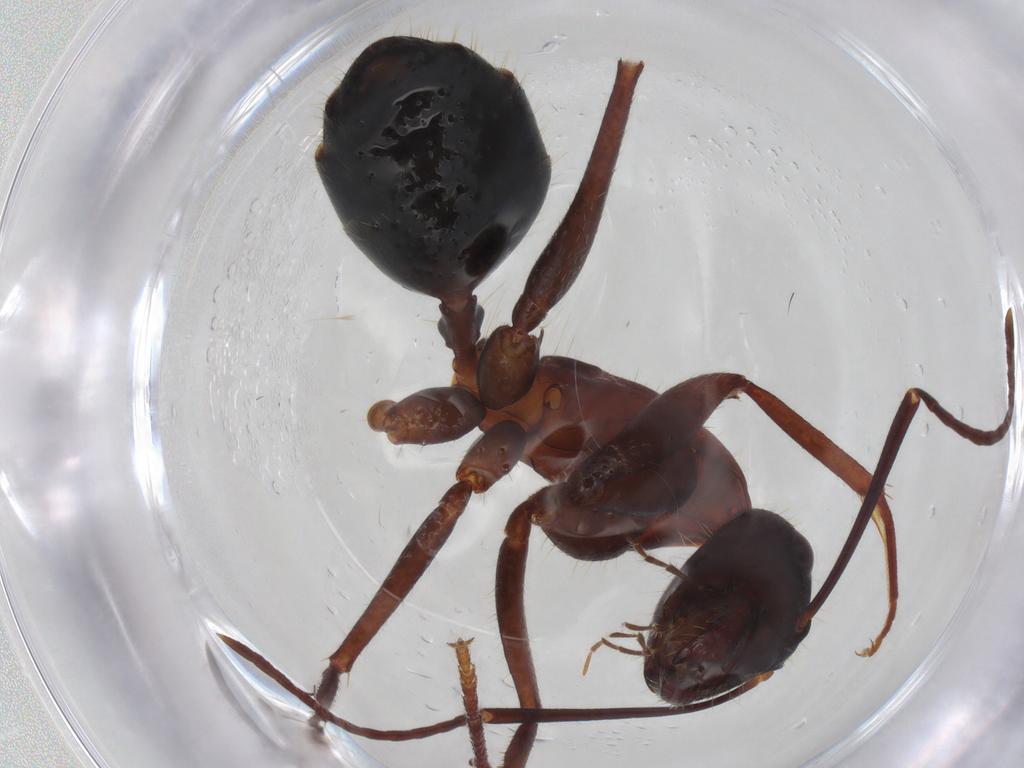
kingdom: Animalia
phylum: Arthropoda
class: Insecta
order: Hymenoptera
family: Formicidae
